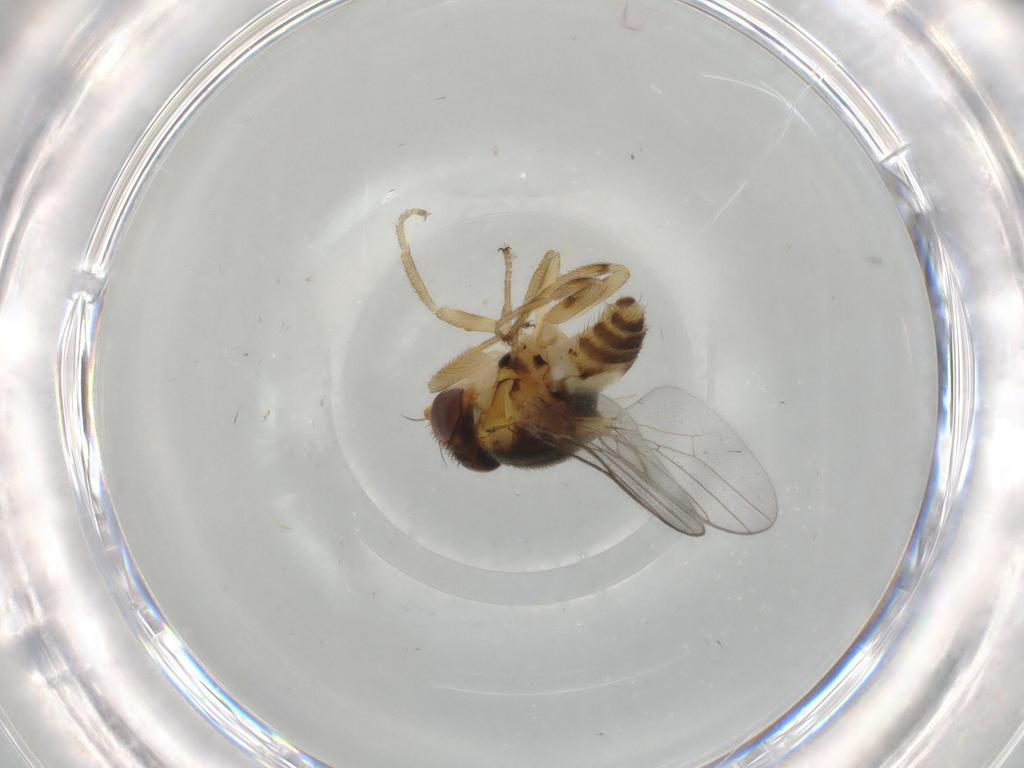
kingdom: Animalia
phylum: Arthropoda
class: Insecta
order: Diptera
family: Chloropidae
